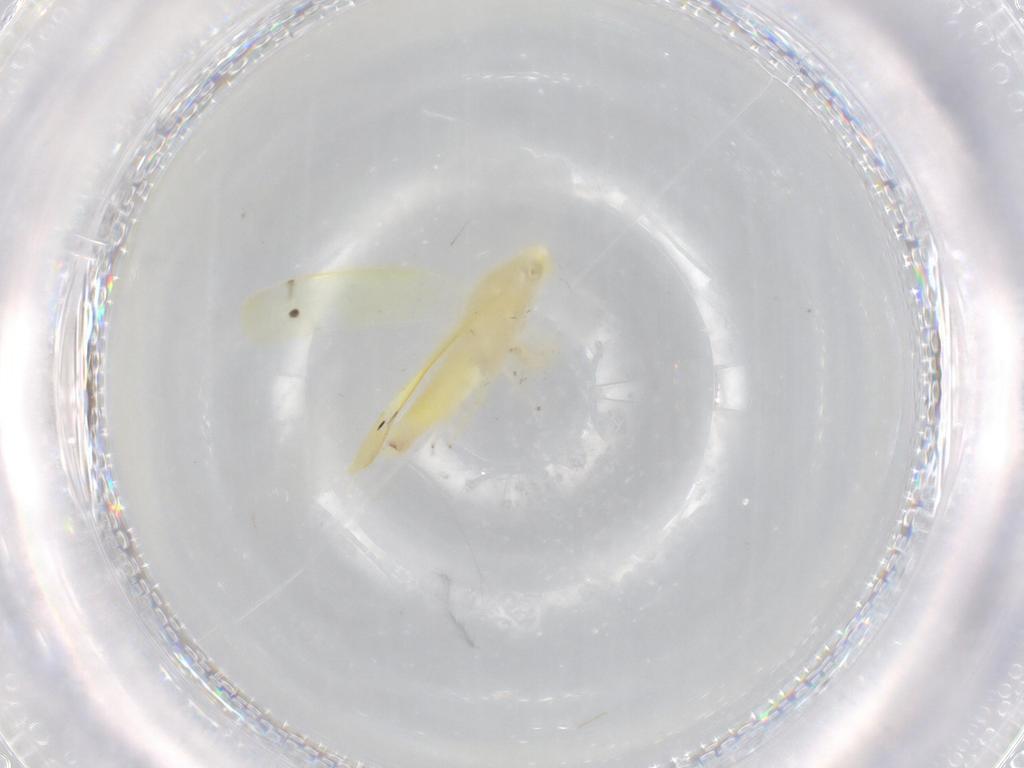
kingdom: Animalia
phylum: Arthropoda
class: Insecta
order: Hemiptera
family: Cicadellidae
